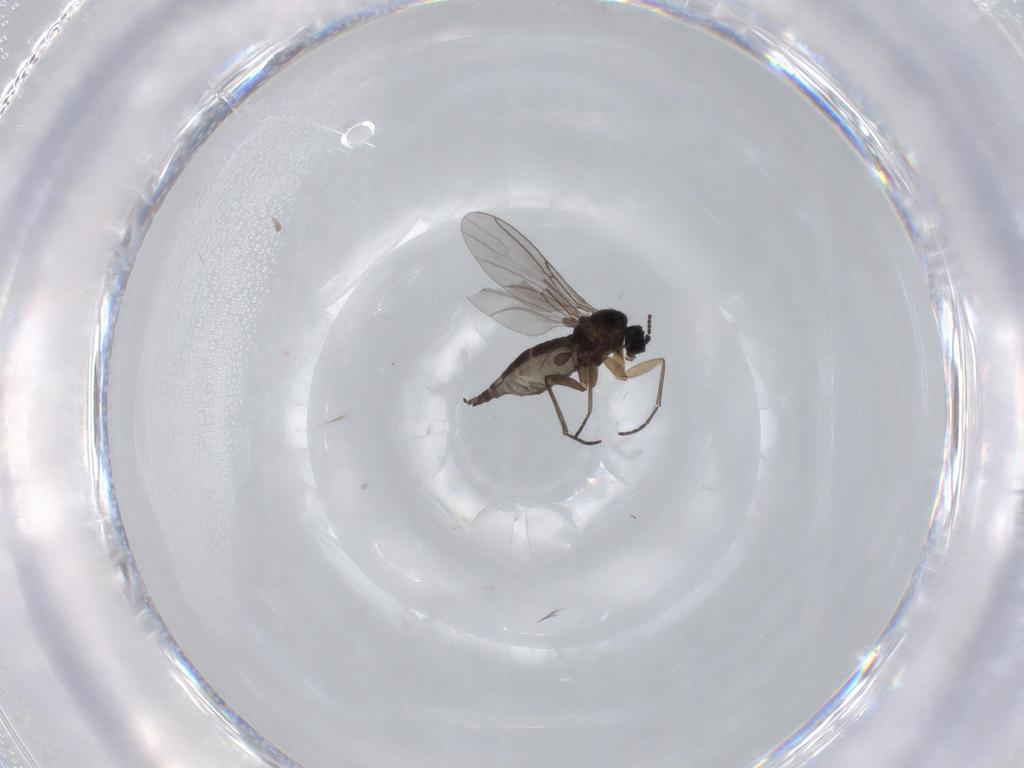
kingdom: Animalia
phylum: Arthropoda
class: Insecta
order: Diptera
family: Sciaridae
